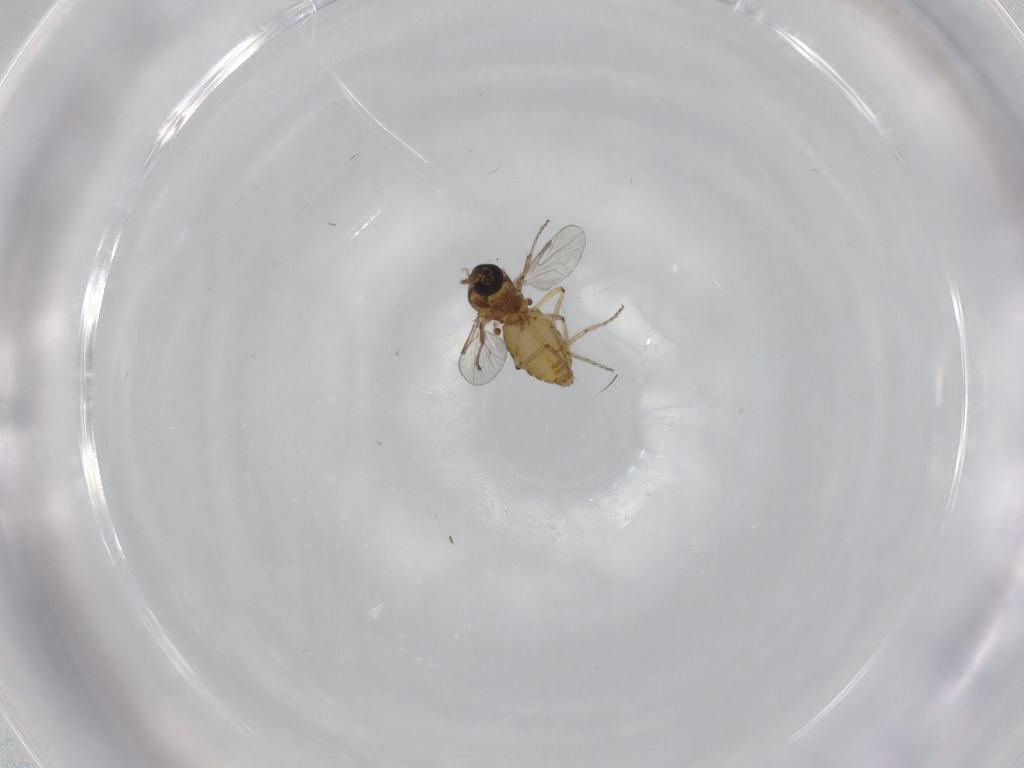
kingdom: Animalia
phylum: Arthropoda
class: Insecta
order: Diptera
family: Ceratopogonidae
